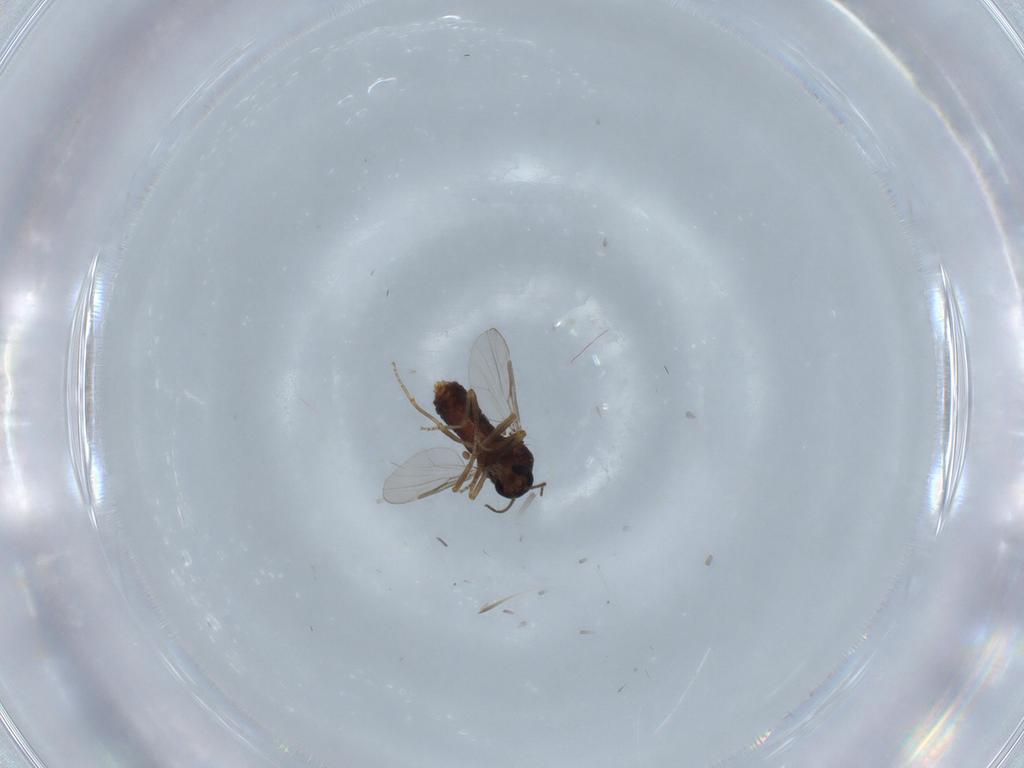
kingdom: Animalia
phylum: Arthropoda
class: Insecta
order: Diptera
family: Ceratopogonidae
